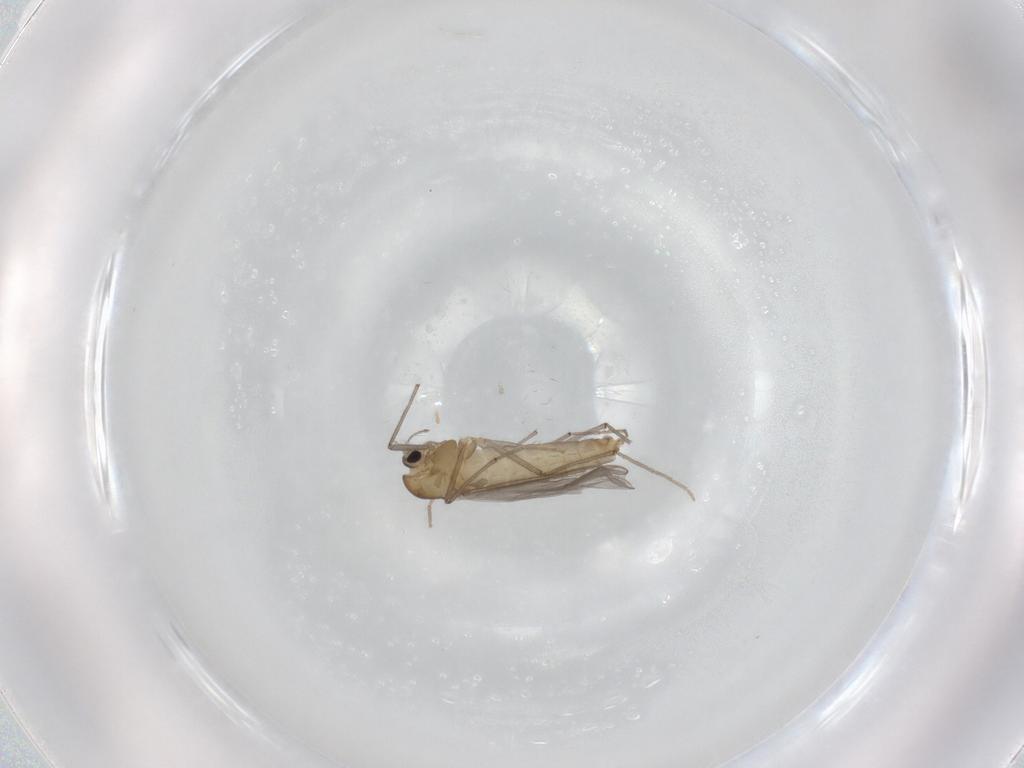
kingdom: Animalia
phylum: Arthropoda
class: Insecta
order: Diptera
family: Chironomidae
